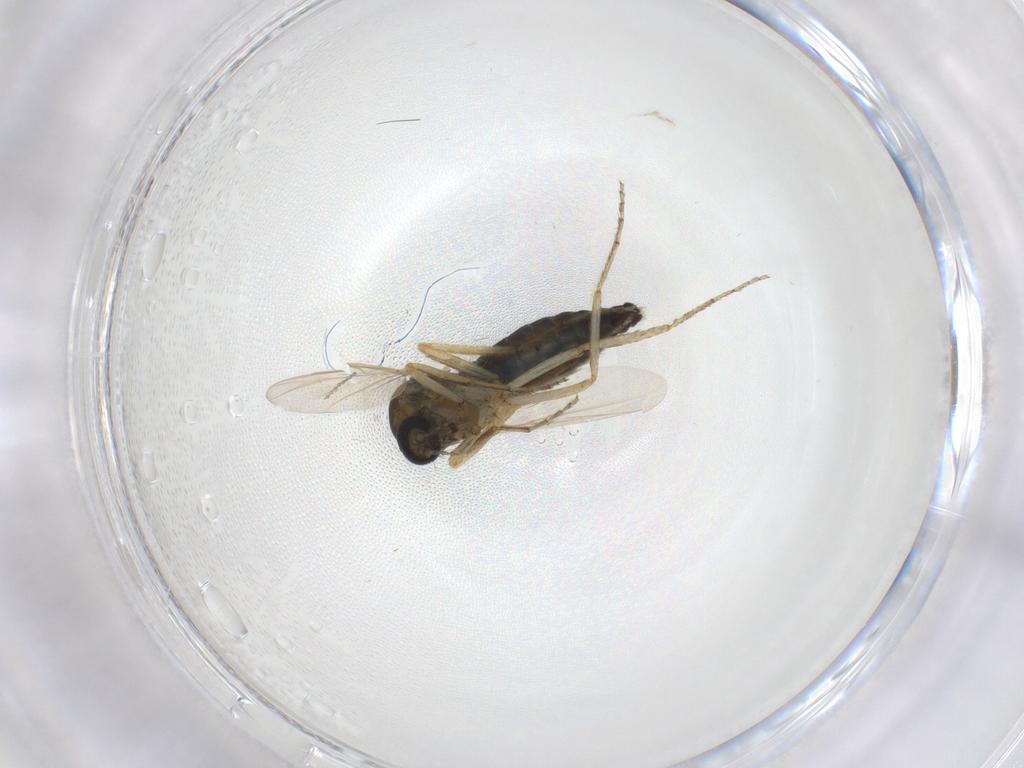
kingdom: Animalia
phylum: Arthropoda
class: Insecta
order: Diptera
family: Ceratopogonidae
